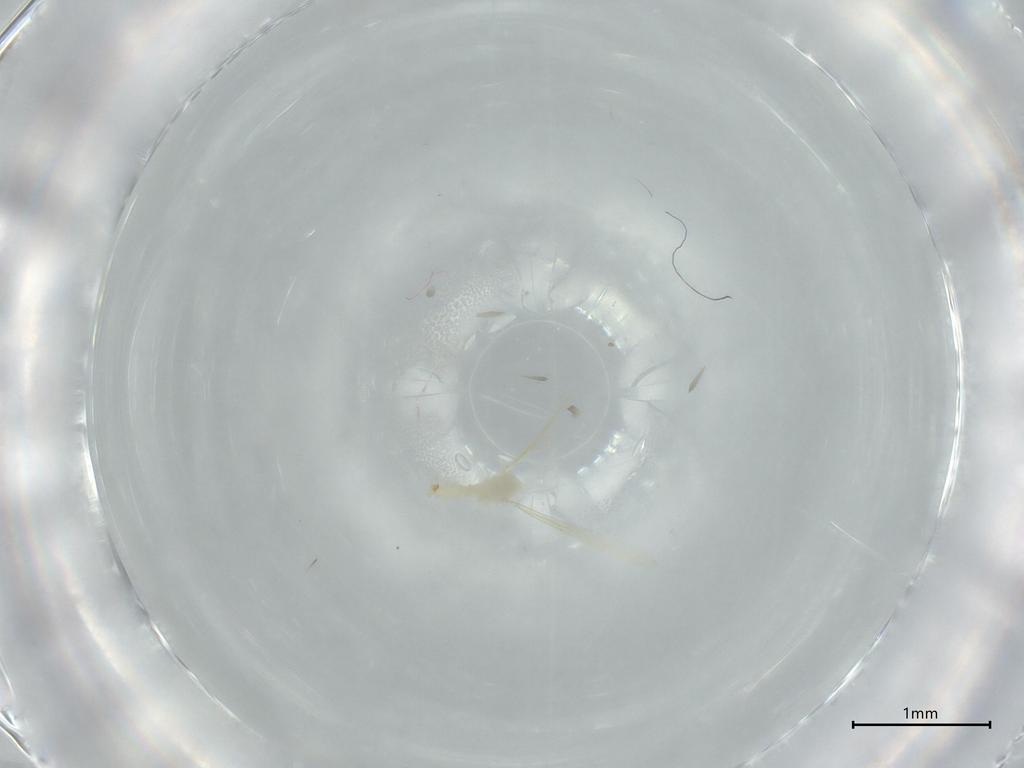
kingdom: Animalia
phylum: Arthropoda
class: Insecta
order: Diptera
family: Cecidomyiidae
